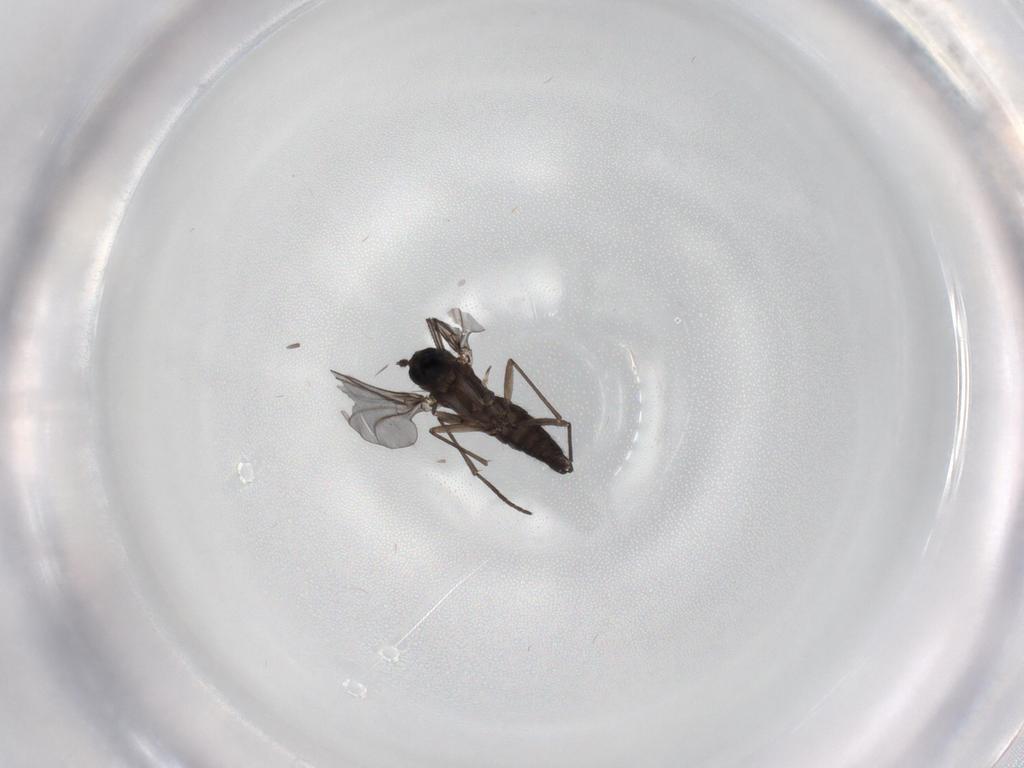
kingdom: Animalia
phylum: Arthropoda
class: Insecta
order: Diptera
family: Sciaridae
